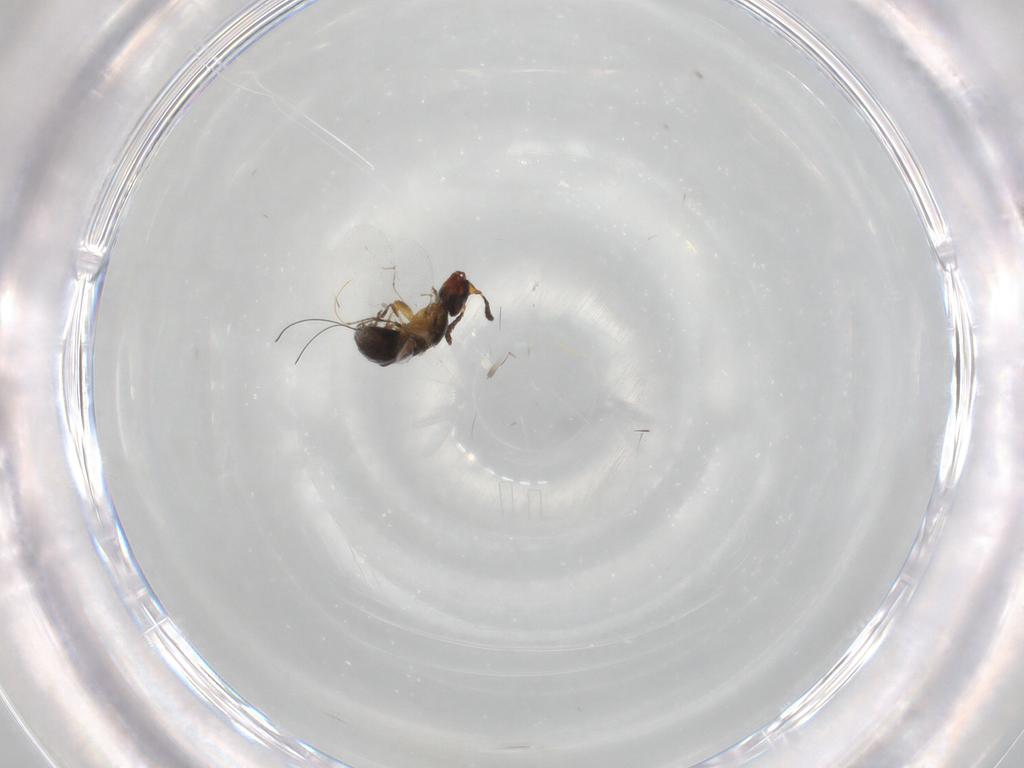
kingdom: Animalia
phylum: Arthropoda
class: Insecta
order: Hymenoptera
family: Agaonidae
